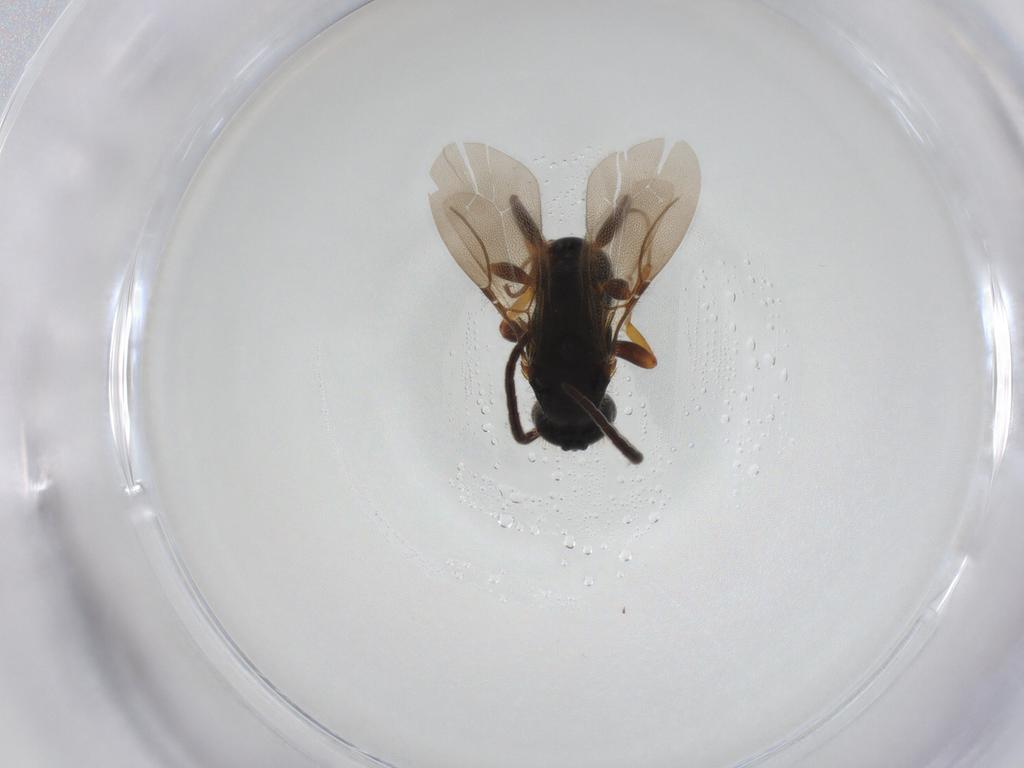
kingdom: Animalia
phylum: Arthropoda
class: Insecta
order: Hymenoptera
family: Bethylidae
